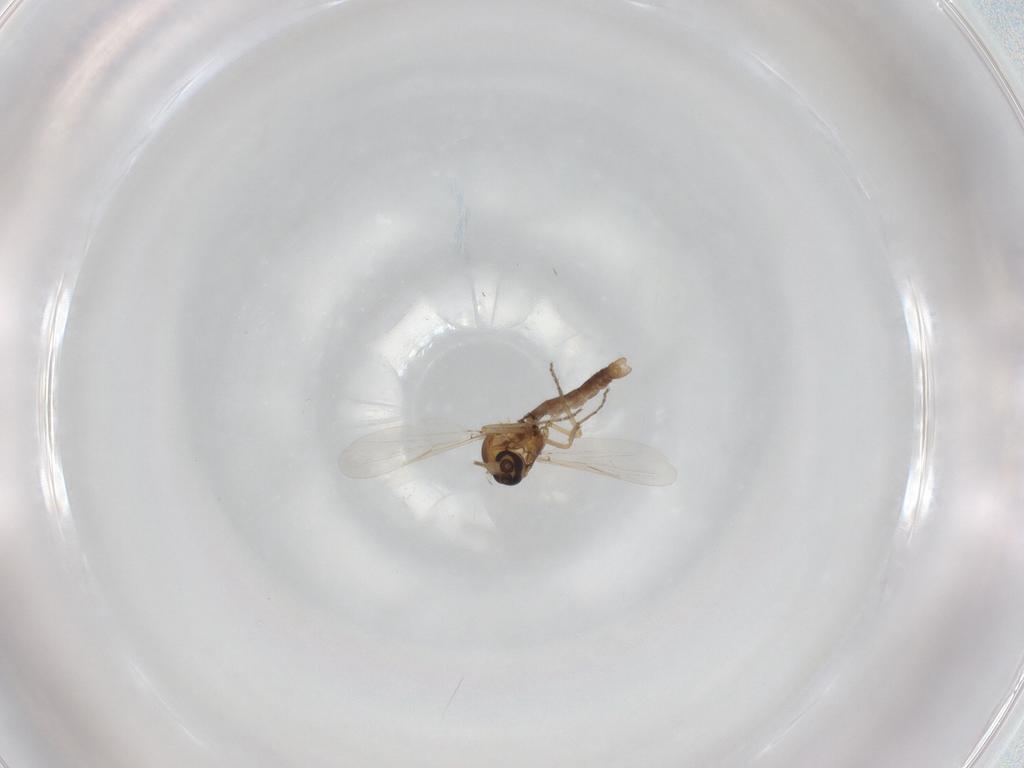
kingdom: Animalia
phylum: Arthropoda
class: Insecta
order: Diptera
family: Ceratopogonidae
